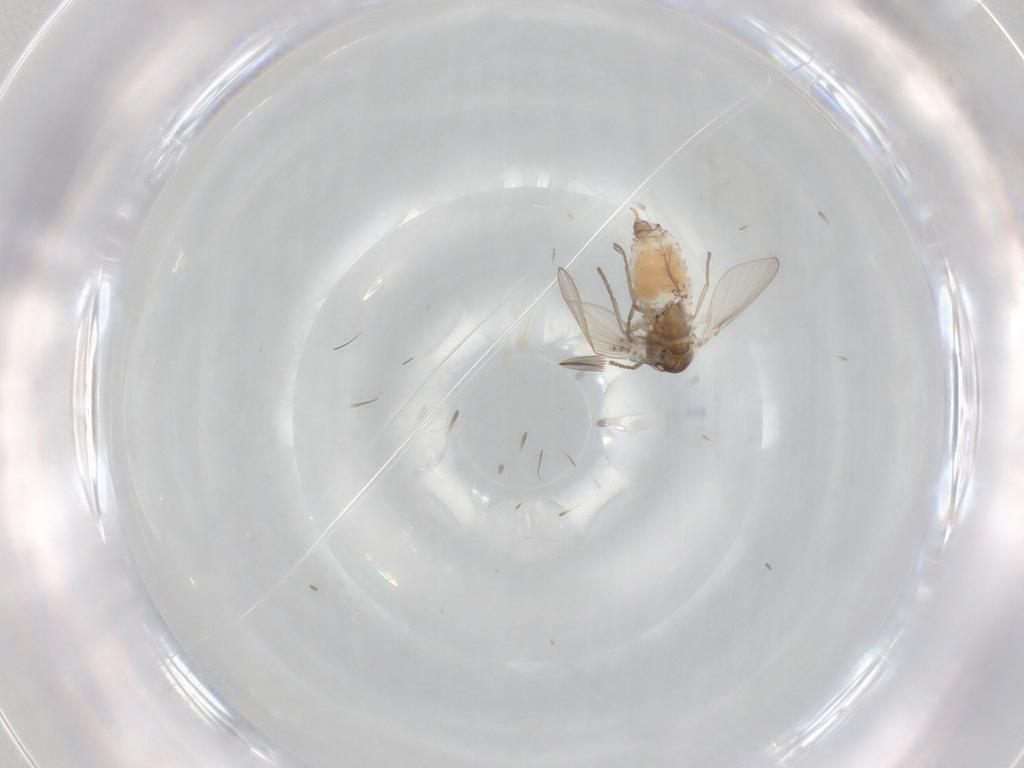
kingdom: Animalia
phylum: Arthropoda
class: Insecta
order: Diptera
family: Psychodidae
